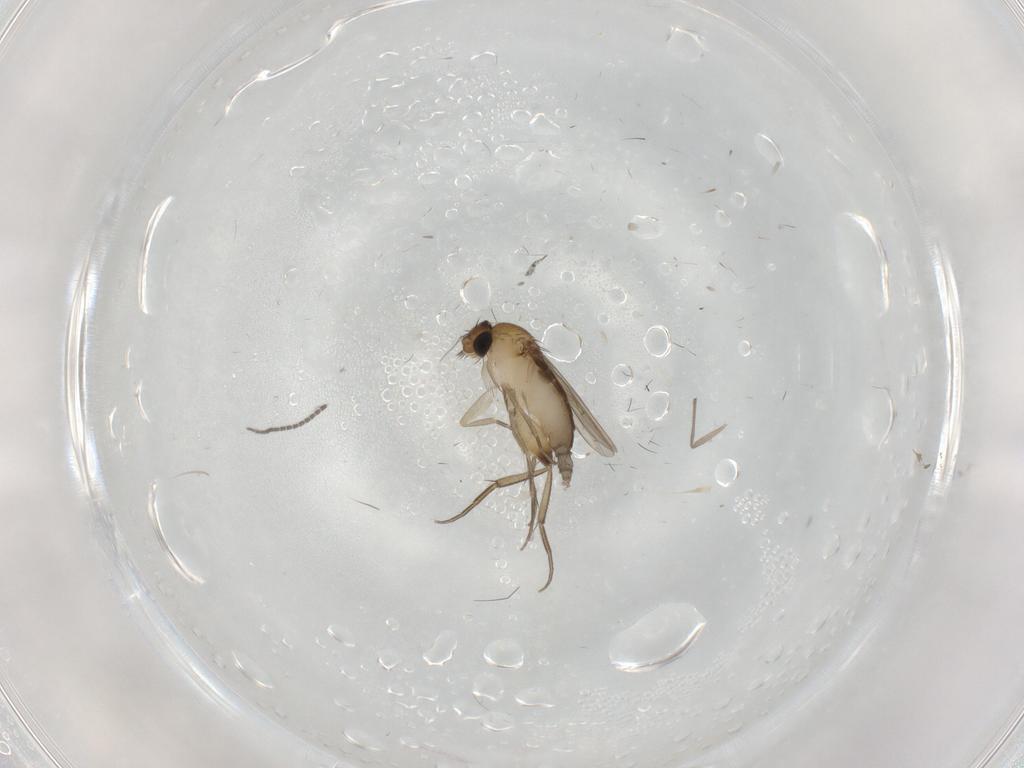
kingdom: Animalia
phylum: Arthropoda
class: Insecta
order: Diptera
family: Phoridae
